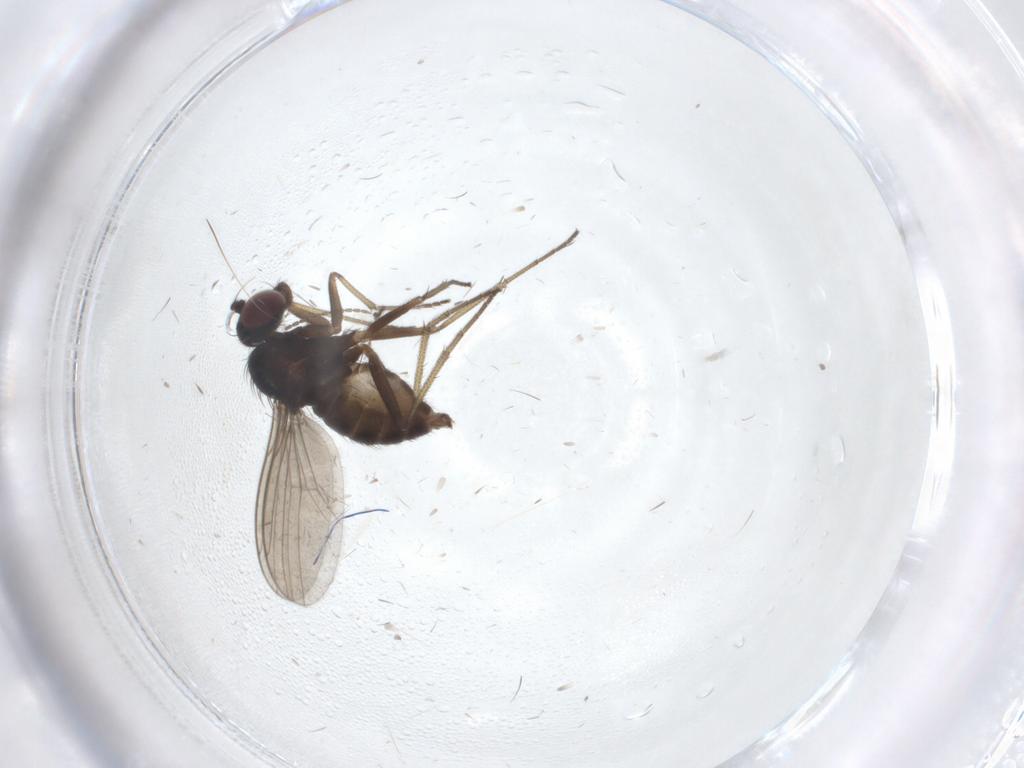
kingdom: Animalia
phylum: Arthropoda
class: Insecta
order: Diptera
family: Dolichopodidae
